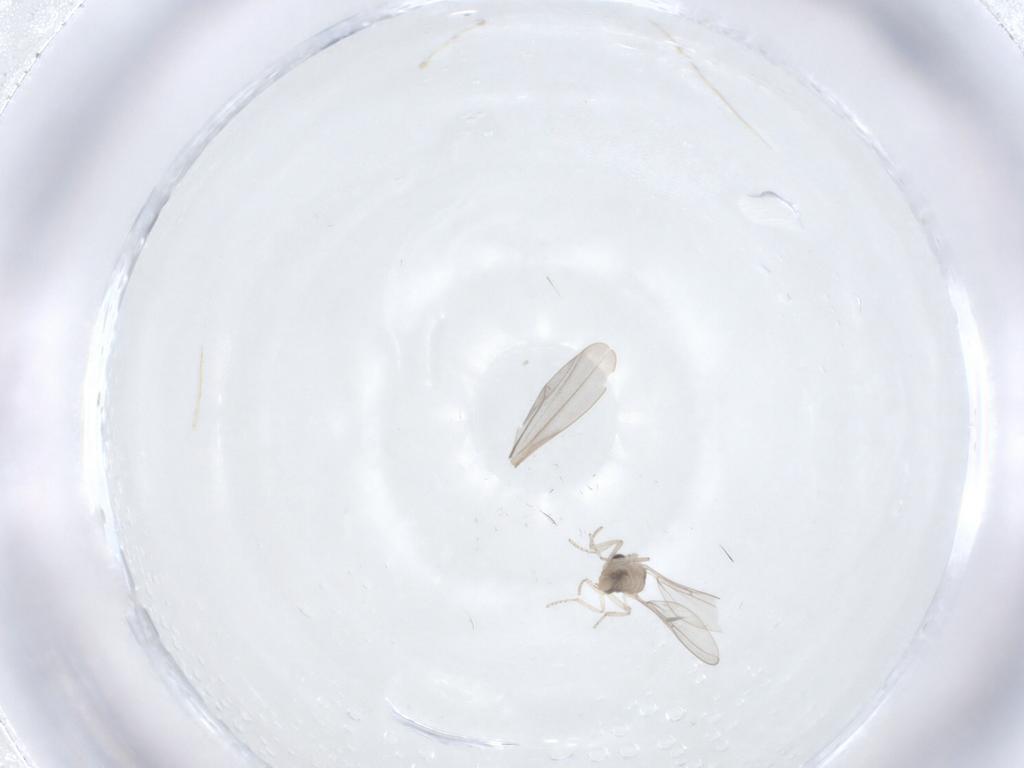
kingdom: Animalia
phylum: Arthropoda
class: Insecta
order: Diptera
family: Cecidomyiidae
